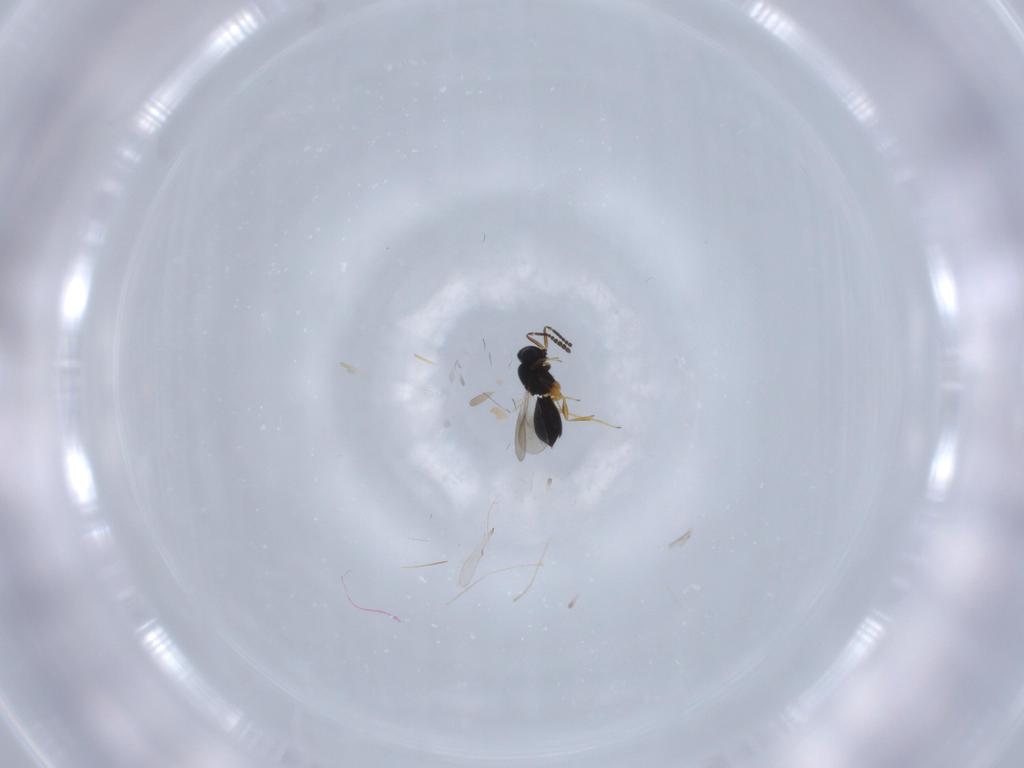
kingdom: Animalia
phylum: Arthropoda
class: Insecta
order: Hymenoptera
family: Scelionidae
